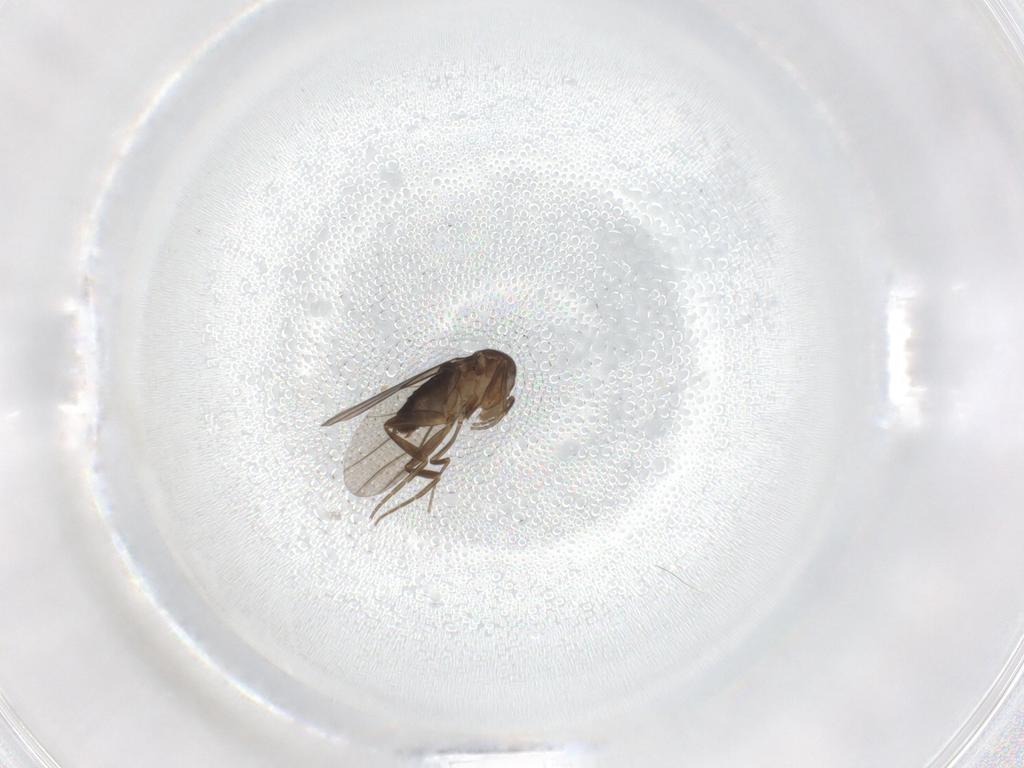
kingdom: Animalia
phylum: Arthropoda
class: Insecta
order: Diptera
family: Phoridae
